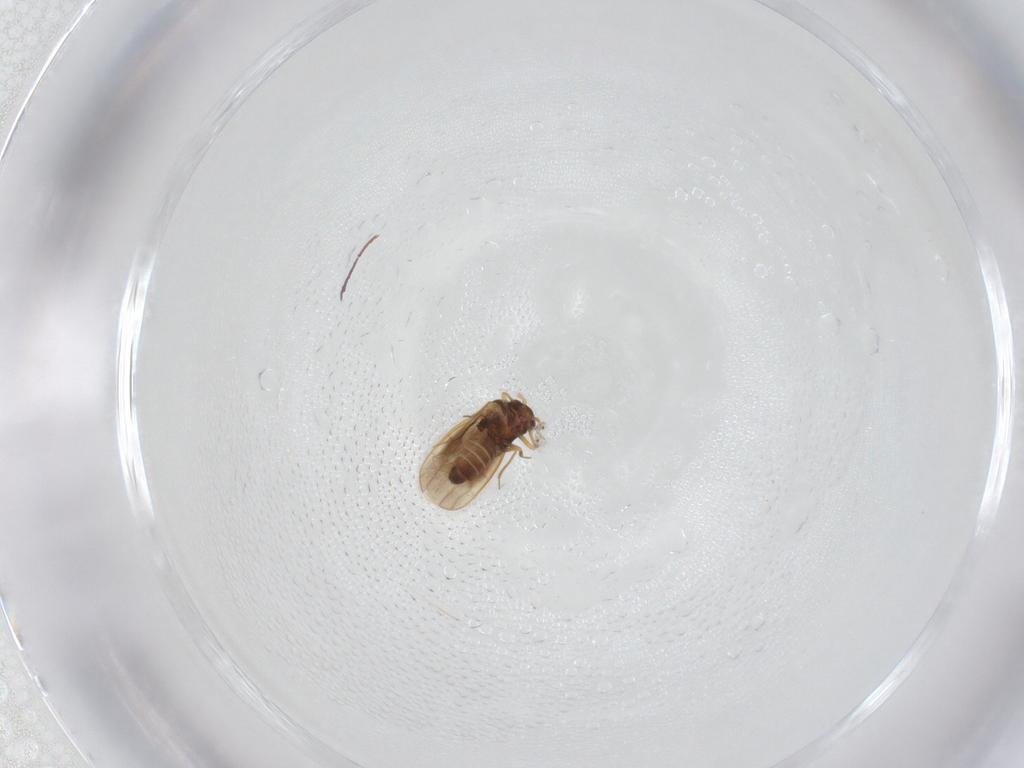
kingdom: Animalia
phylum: Arthropoda
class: Insecta
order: Hemiptera
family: Schizopteridae
